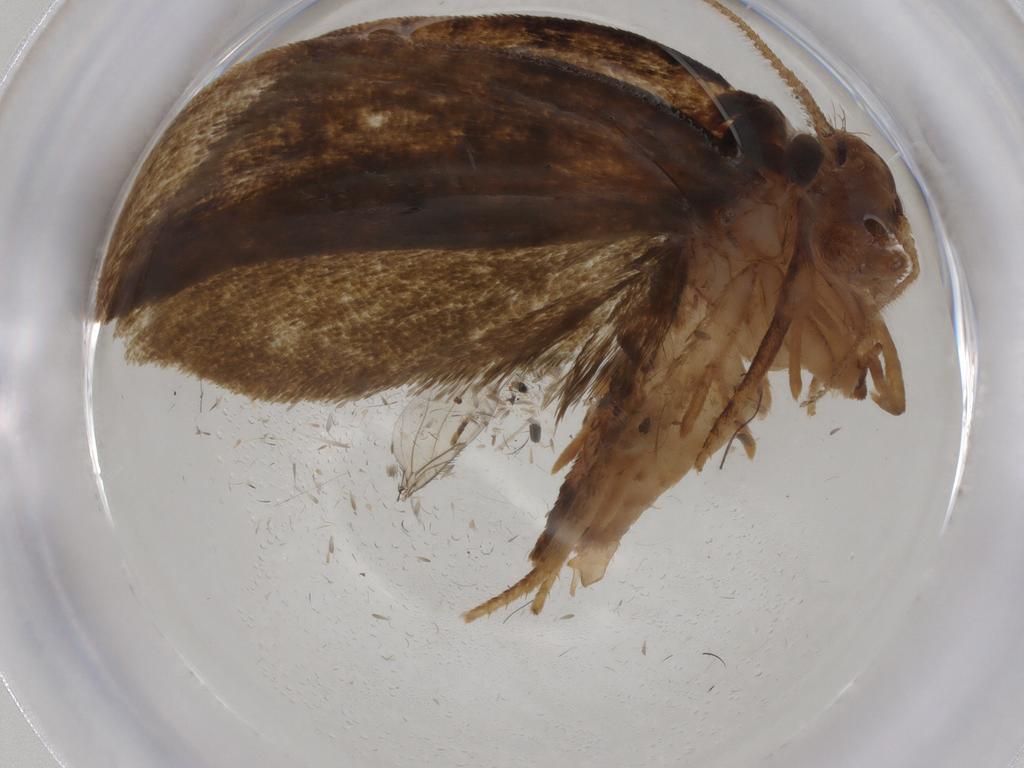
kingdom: Animalia
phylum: Arthropoda
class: Insecta
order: Lepidoptera
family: Geometridae
